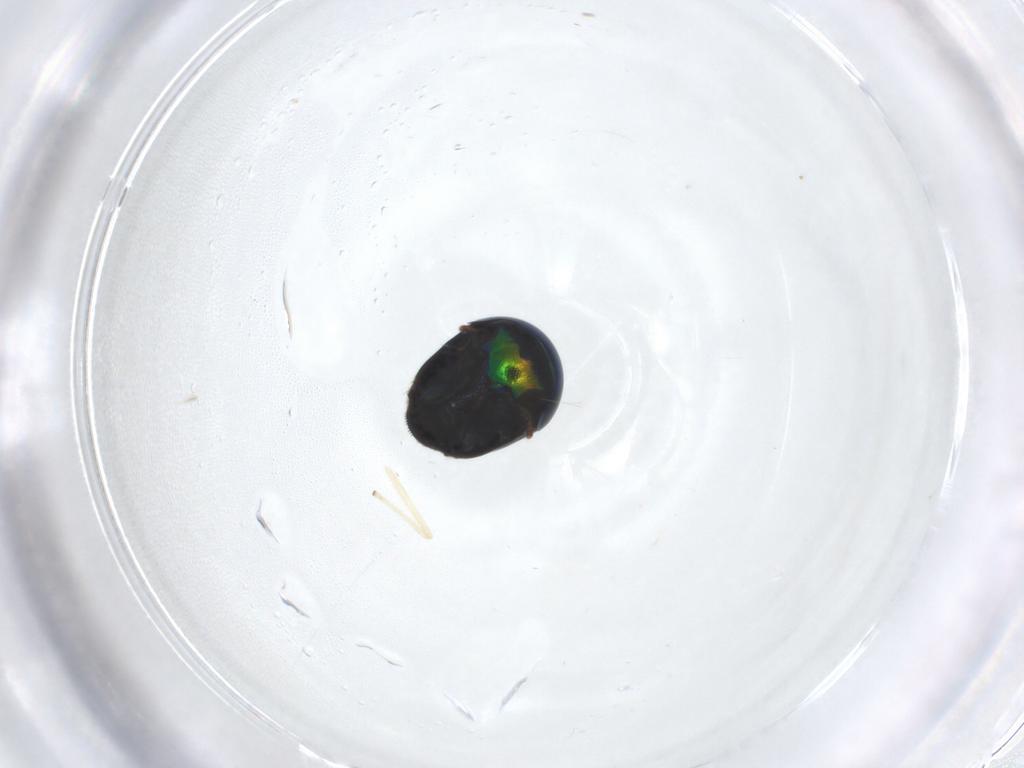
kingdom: Animalia
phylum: Arthropoda
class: Insecta
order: Coleoptera
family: Cybocephalidae
